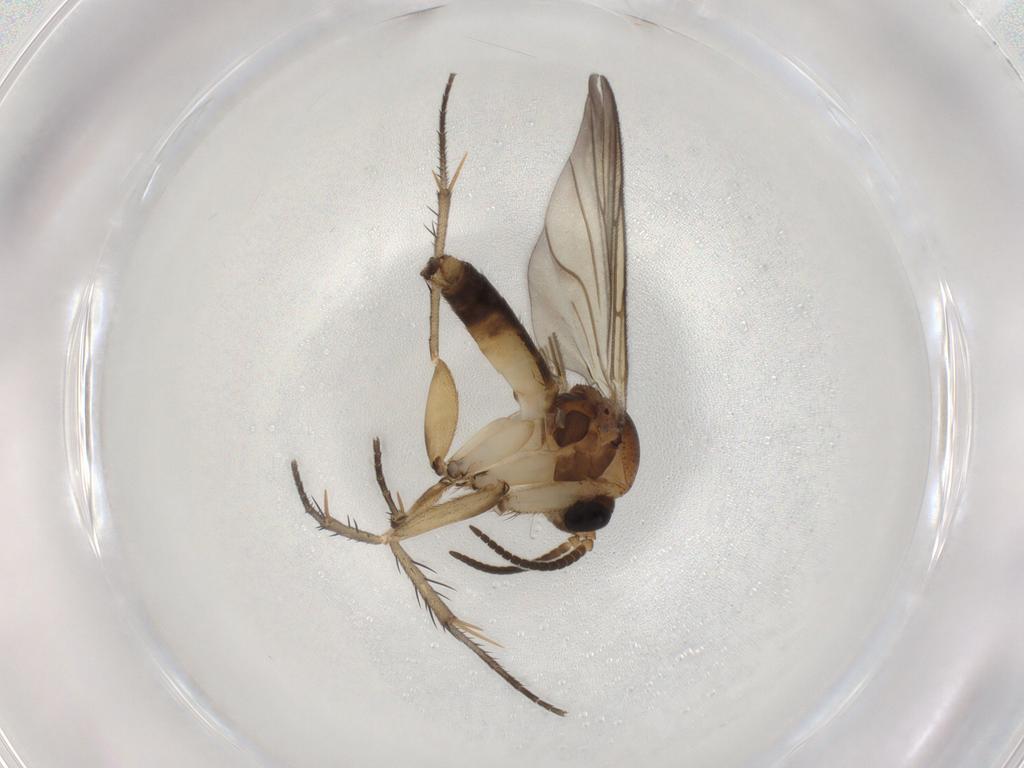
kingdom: Animalia
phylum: Arthropoda
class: Insecta
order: Diptera
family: Mycetophilidae
